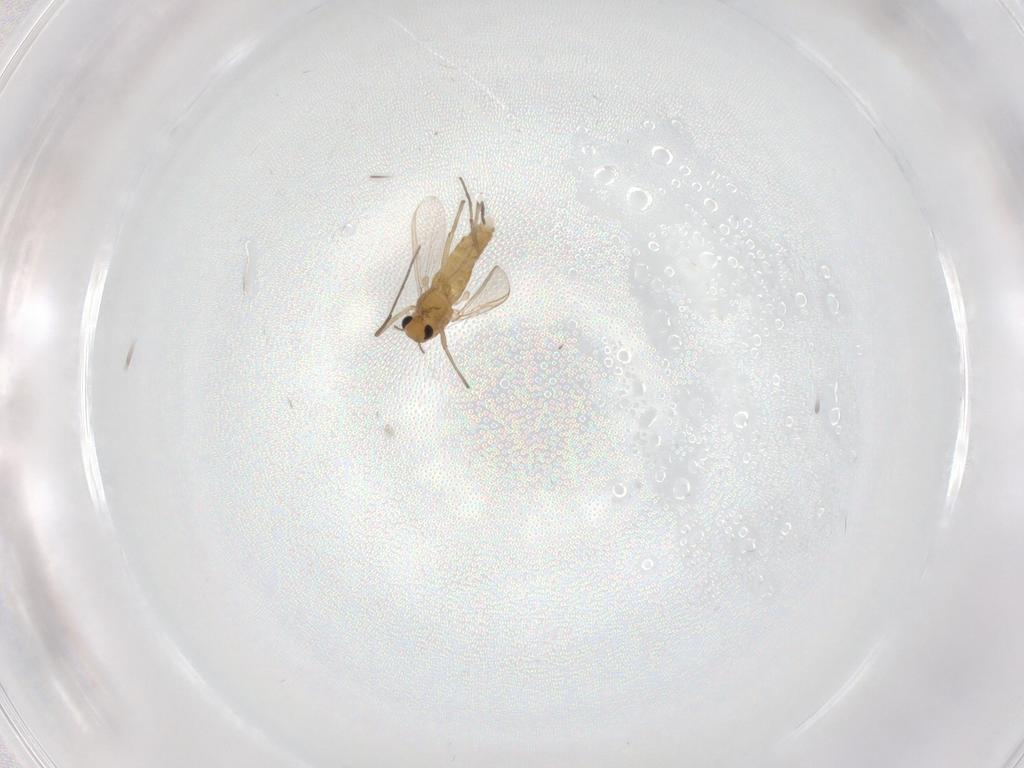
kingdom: Animalia
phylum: Arthropoda
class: Insecta
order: Diptera
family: Chironomidae
